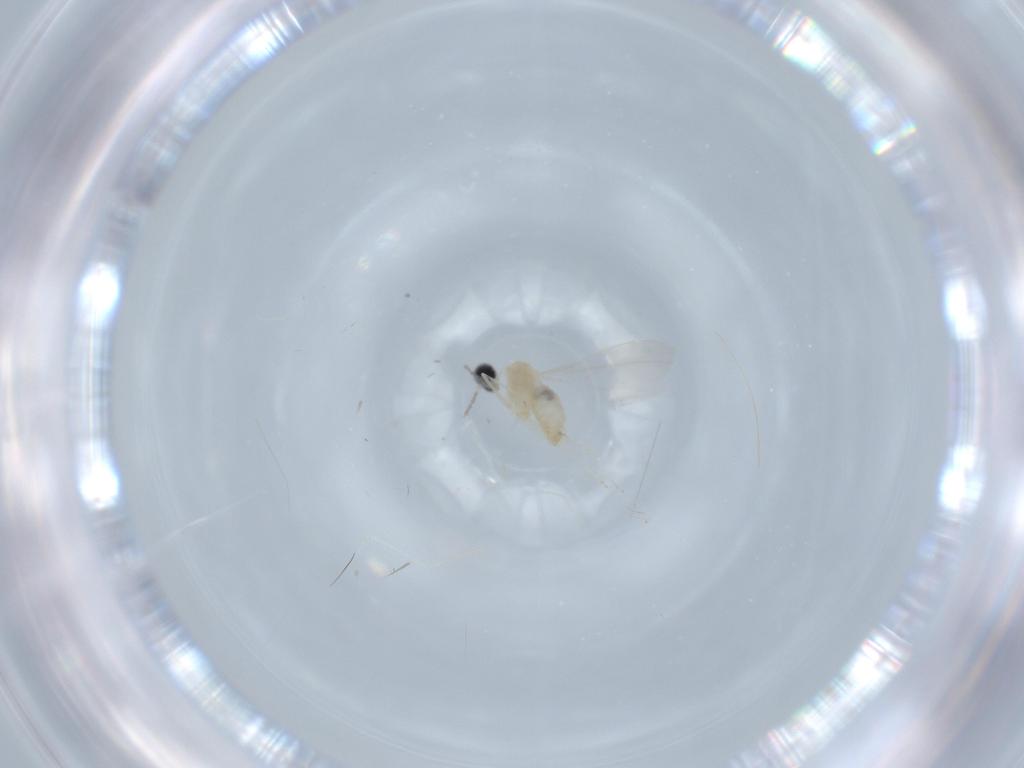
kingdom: Animalia
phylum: Arthropoda
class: Insecta
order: Diptera
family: Cecidomyiidae
